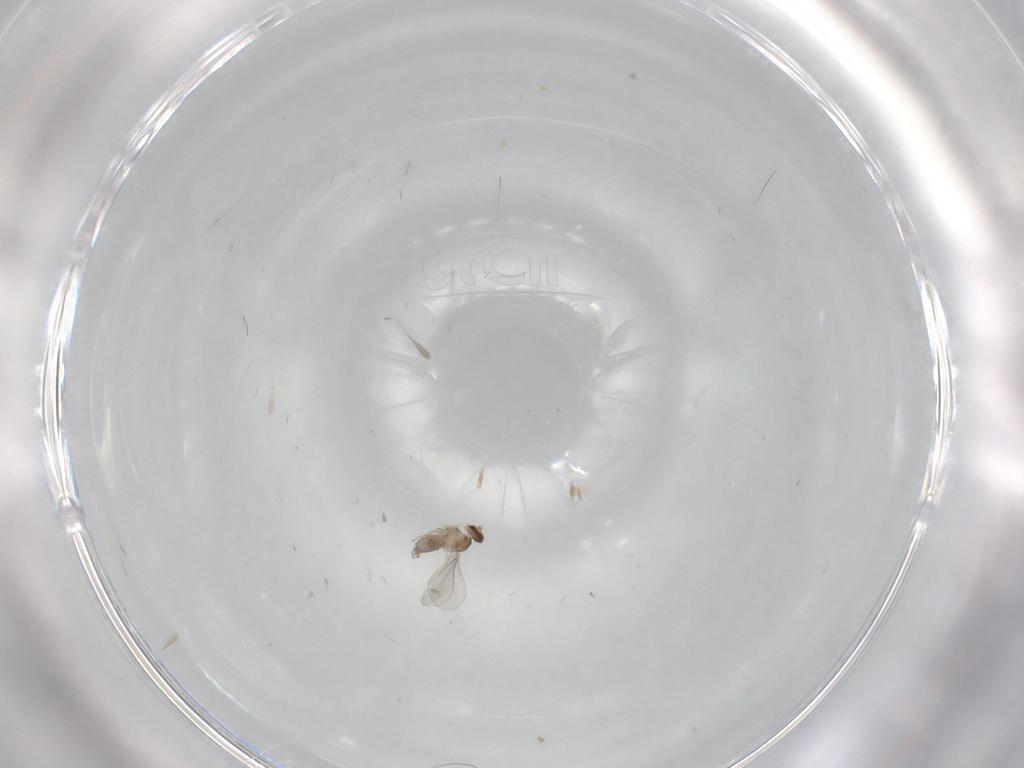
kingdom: Animalia
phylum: Arthropoda
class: Insecta
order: Diptera
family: Cecidomyiidae
